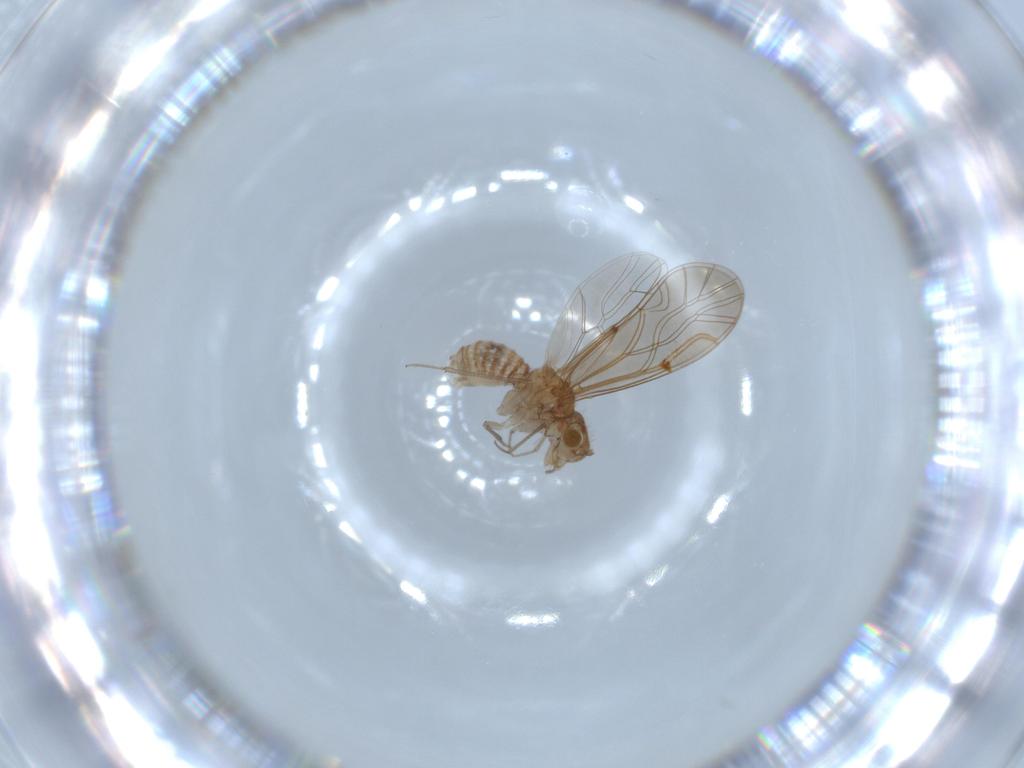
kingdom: Animalia
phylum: Arthropoda
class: Insecta
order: Psocodea
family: Lachesillidae
